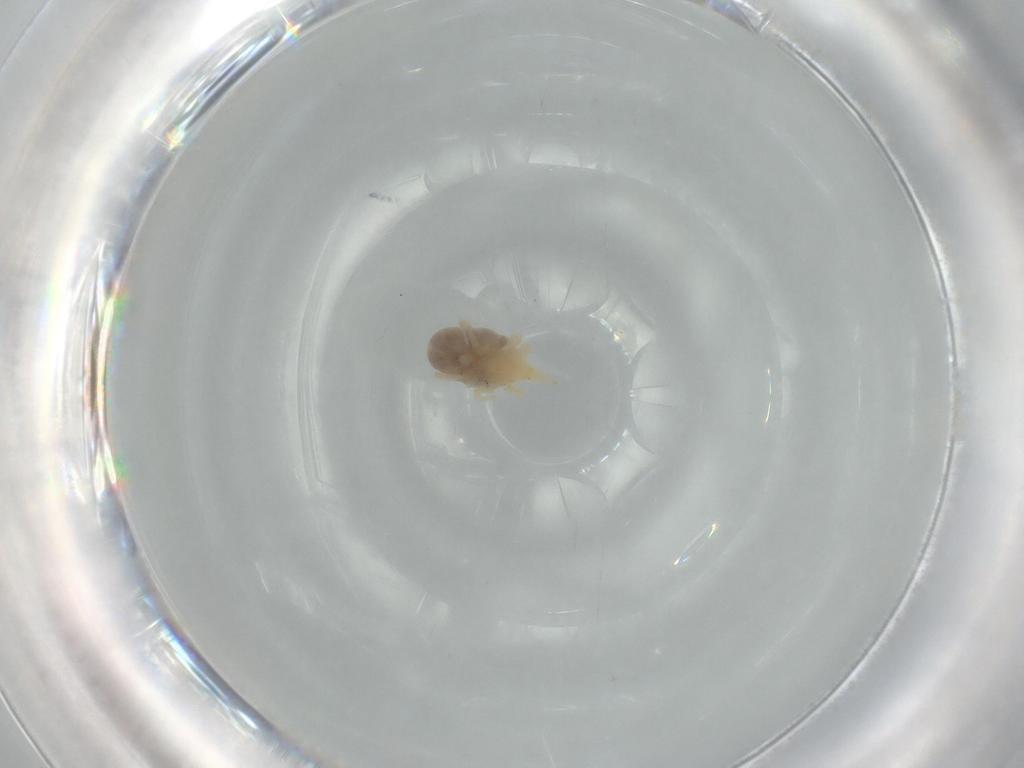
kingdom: Animalia
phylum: Arthropoda
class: Arachnida
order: Trombidiformes
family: Bdellidae
